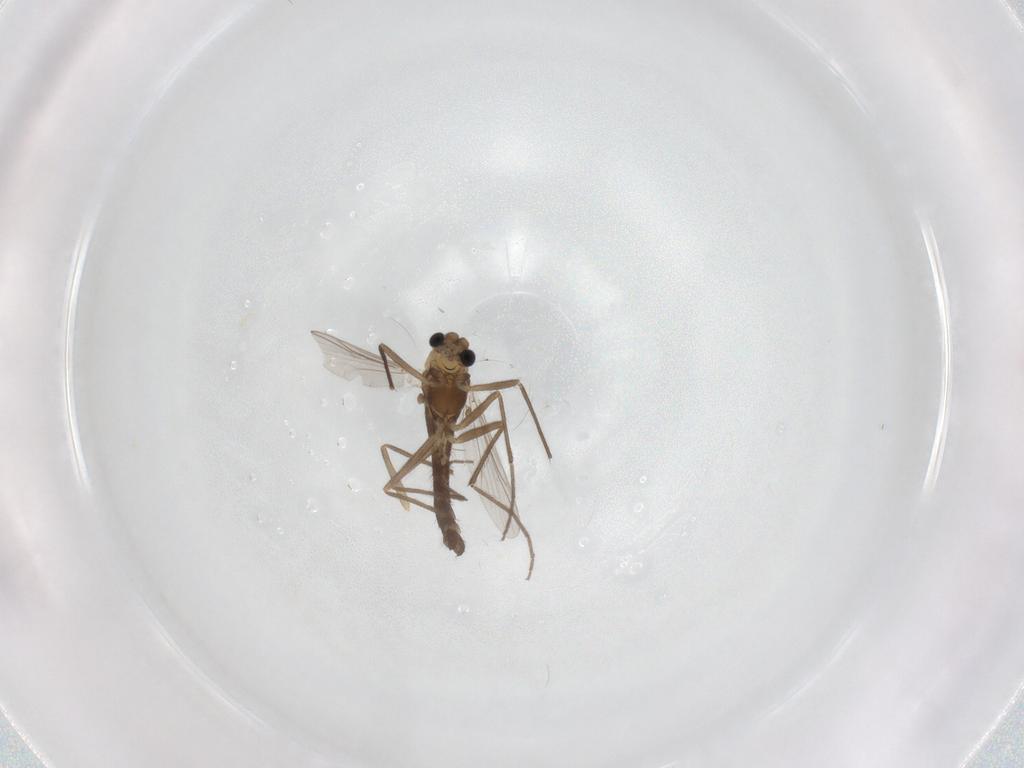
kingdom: Animalia
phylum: Arthropoda
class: Insecta
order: Diptera
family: Chironomidae
